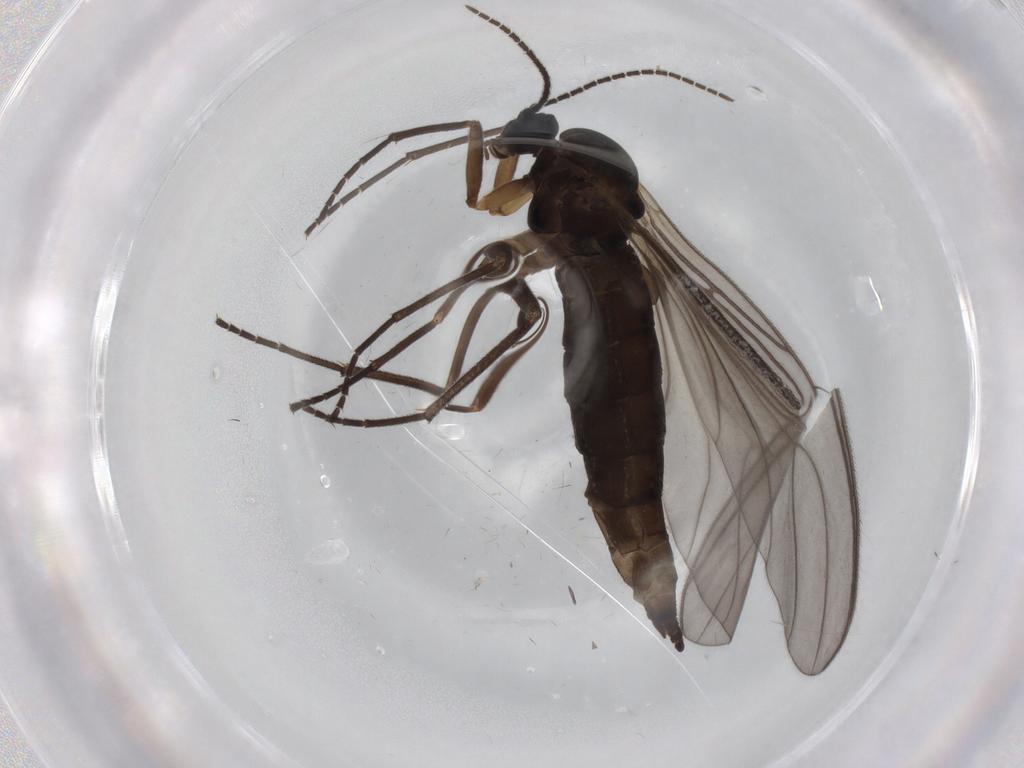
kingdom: Animalia
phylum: Arthropoda
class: Insecta
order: Diptera
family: Sciaridae
